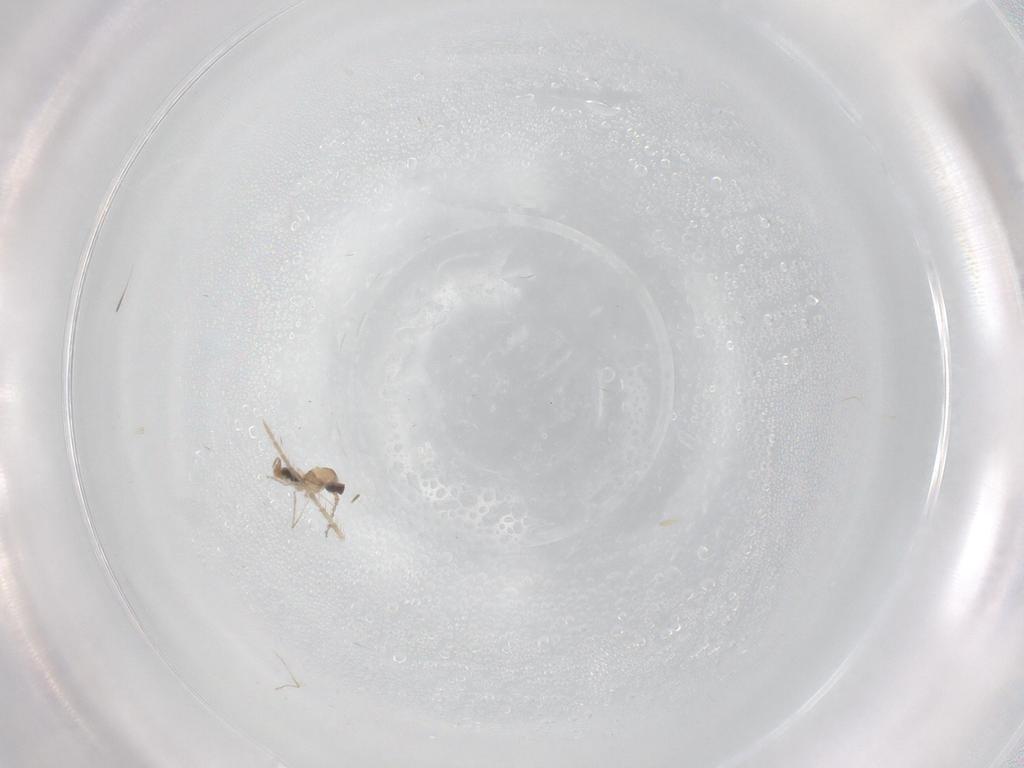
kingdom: Animalia
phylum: Arthropoda
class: Insecta
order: Diptera
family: Cecidomyiidae
